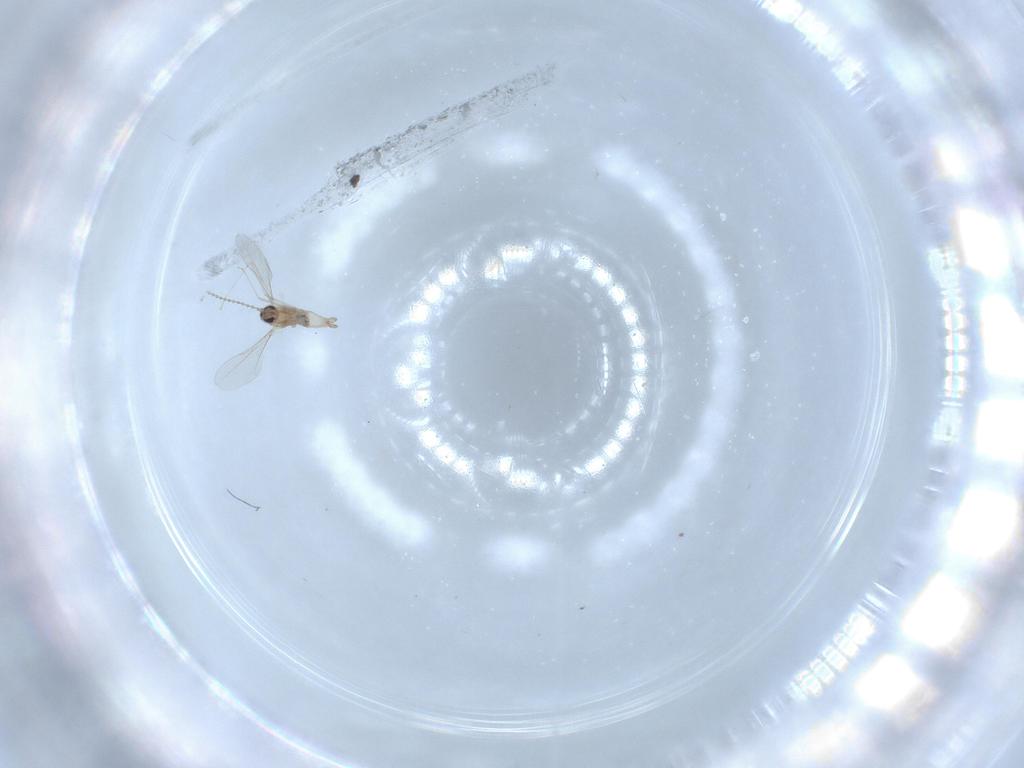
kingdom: Animalia
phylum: Arthropoda
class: Insecta
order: Diptera
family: Cecidomyiidae
